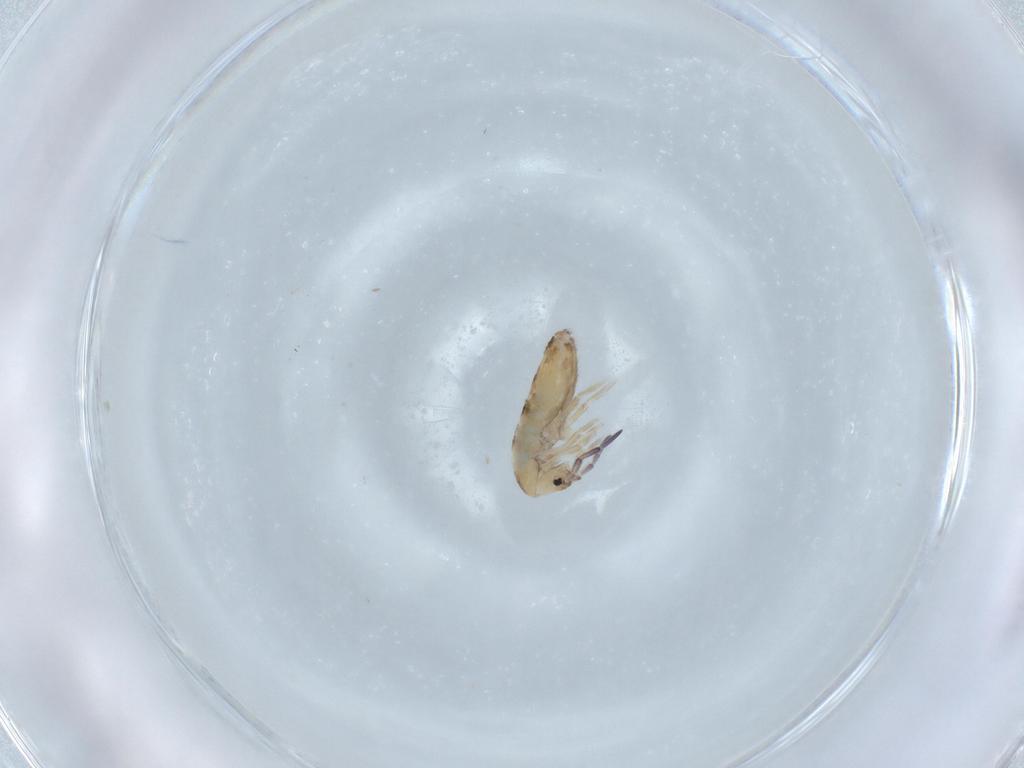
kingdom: Animalia
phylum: Arthropoda
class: Collembola
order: Entomobryomorpha
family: Entomobryidae
